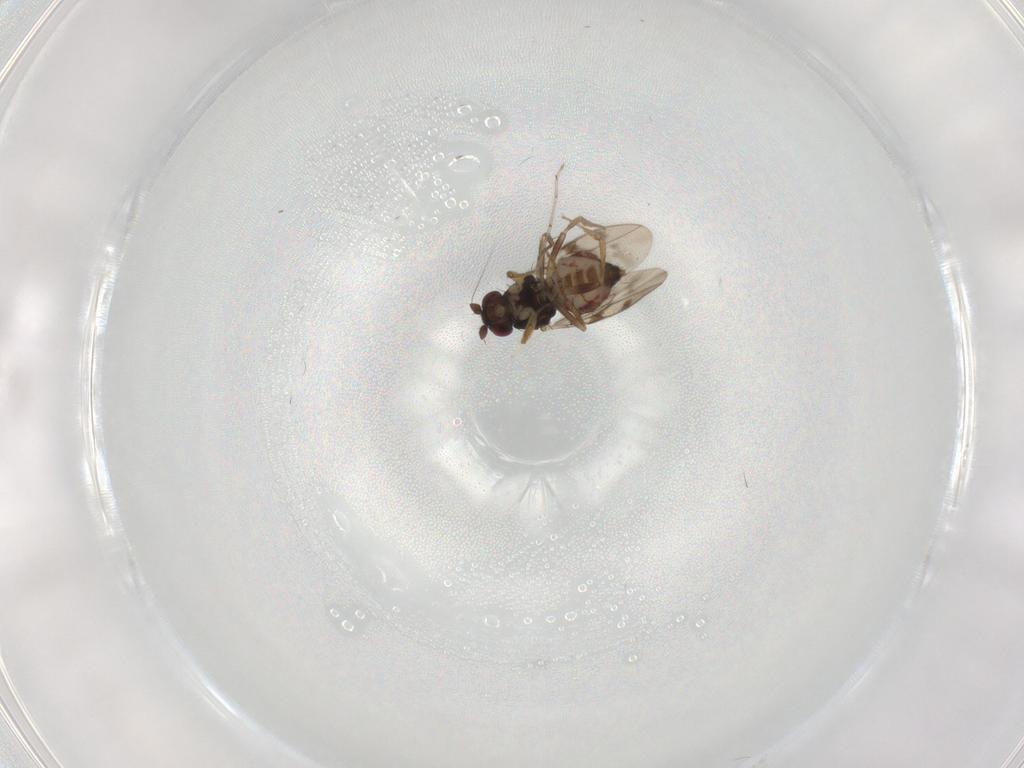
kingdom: Animalia
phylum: Arthropoda
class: Insecta
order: Diptera
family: Sphaeroceridae
